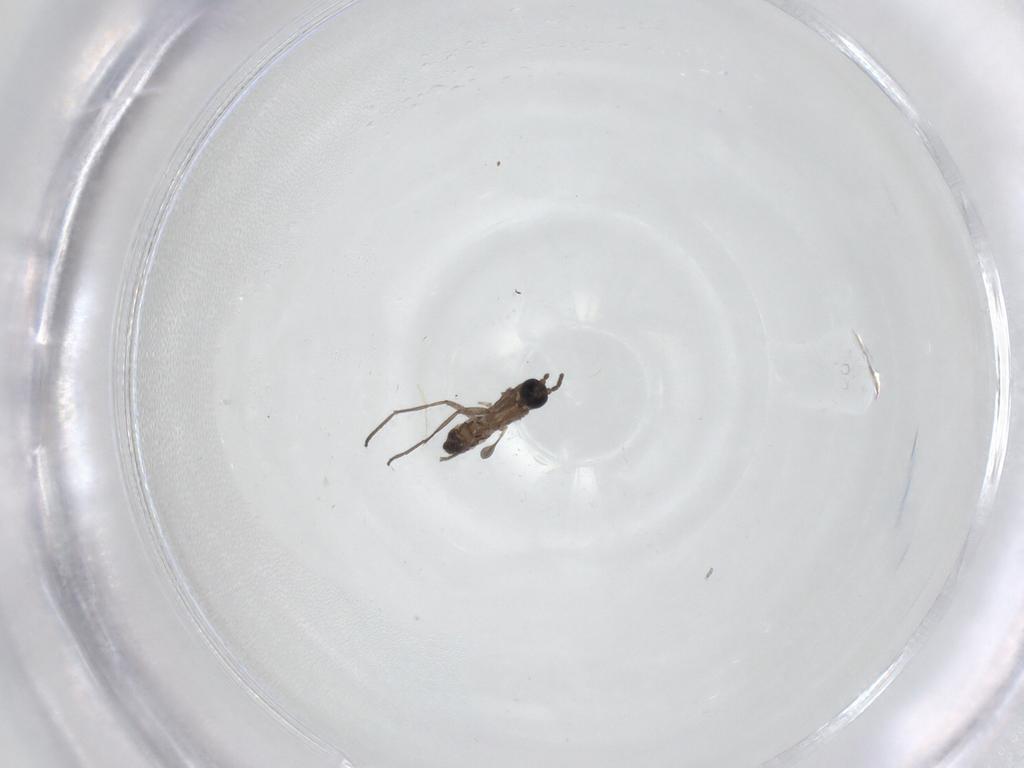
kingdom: Animalia
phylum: Arthropoda
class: Insecta
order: Diptera
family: Sciaridae
